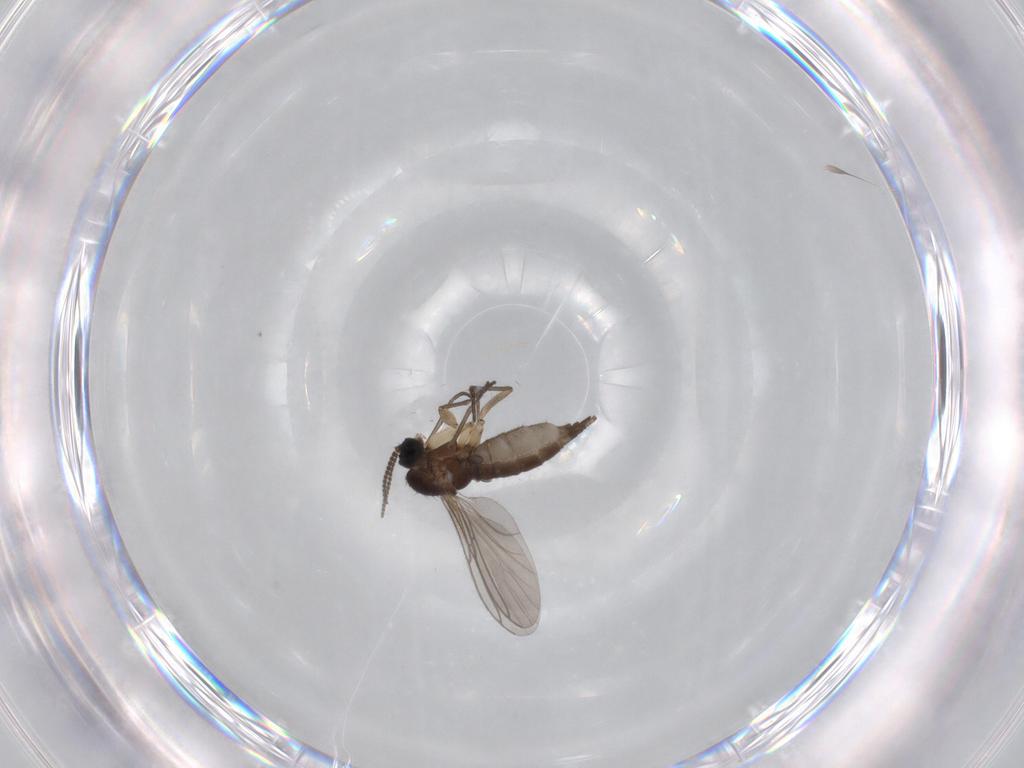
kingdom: Animalia
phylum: Arthropoda
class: Insecta
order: Diptera
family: Sciaridae
